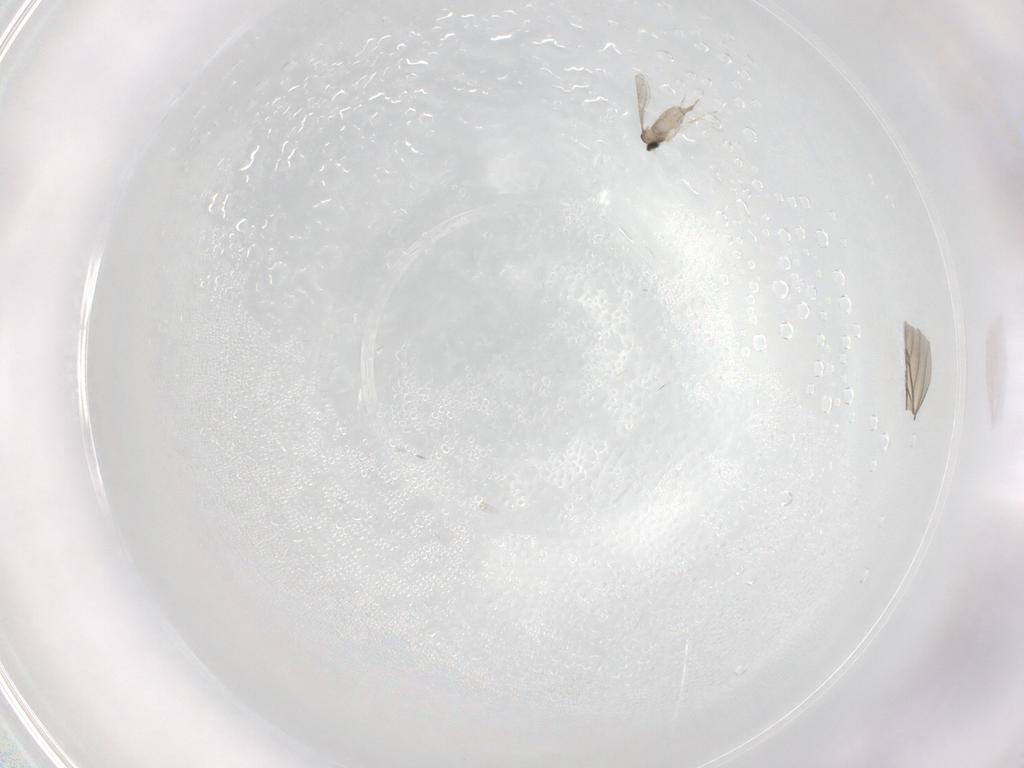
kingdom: Animalia
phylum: Arthropoda
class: Insecta
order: Diptera
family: Cecidomyiidae
